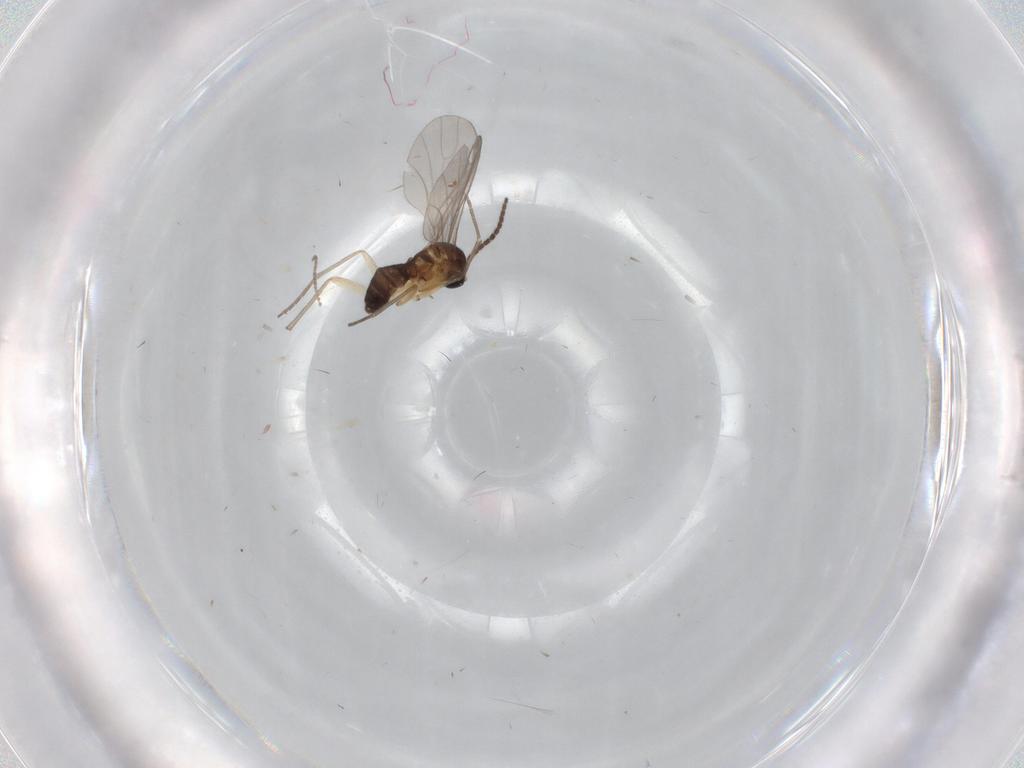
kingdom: Animalia
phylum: Arthropoda
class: Insecta
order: Diptera
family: Cecidomyiidae
